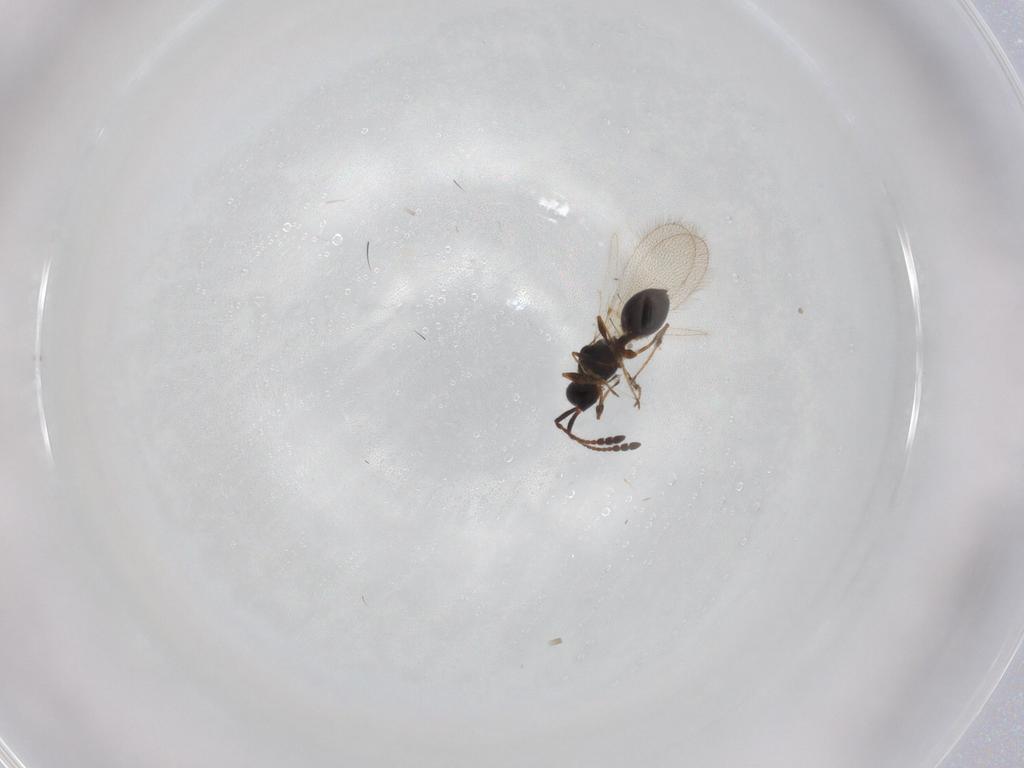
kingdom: Animalia
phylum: Arthropoda
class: Insecta
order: Hymenoptera
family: Diapriidae
